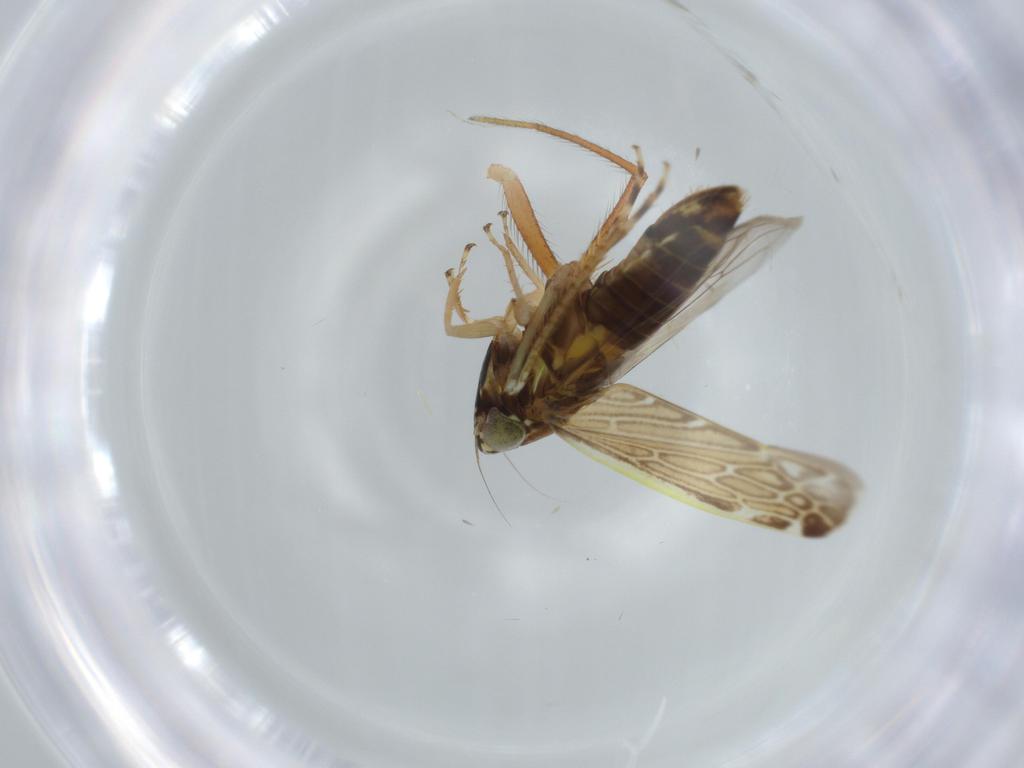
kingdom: Animalia
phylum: Arthropoda
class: Insecta
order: Hemiptera
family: Cicadellidae
